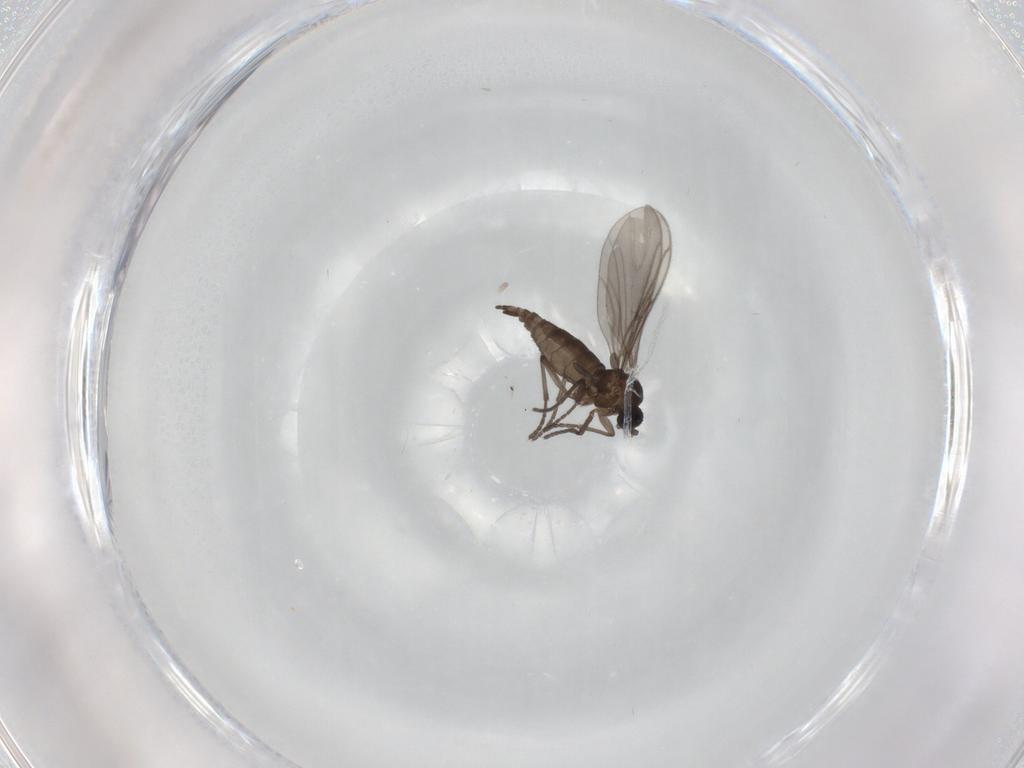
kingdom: Animalia
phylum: Arthropoda
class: Insecta
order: Diptera
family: Phoridae
